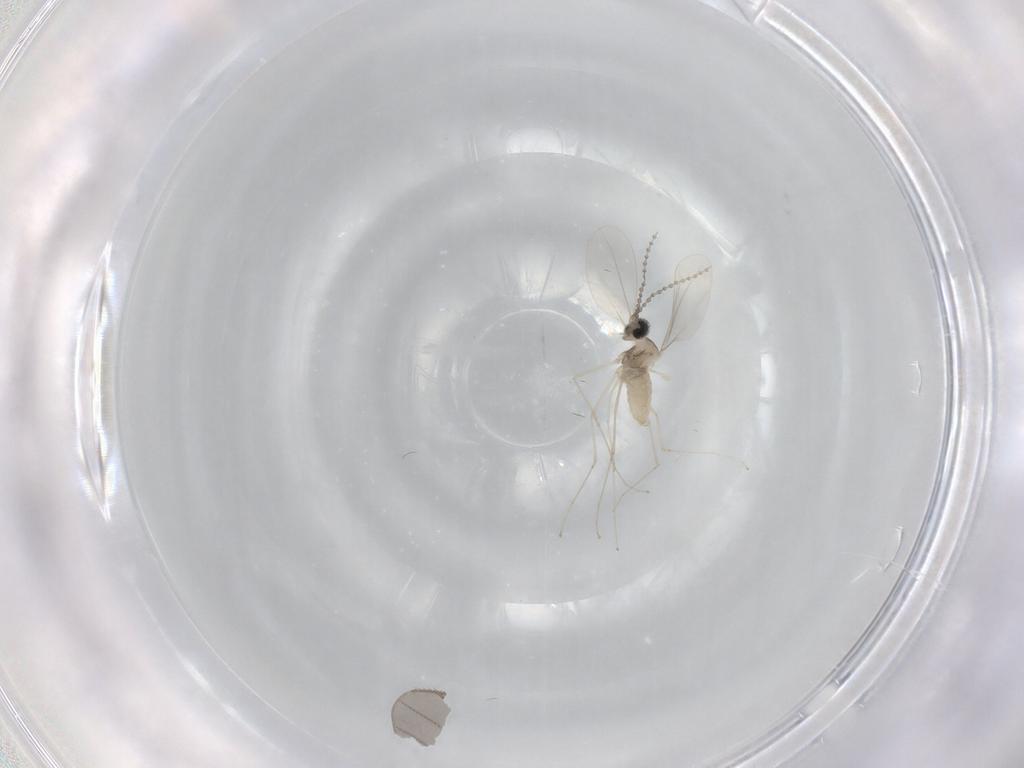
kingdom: Animalia
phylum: Arthropoda
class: Insecta
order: Diptera
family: Cecidomyiidae
